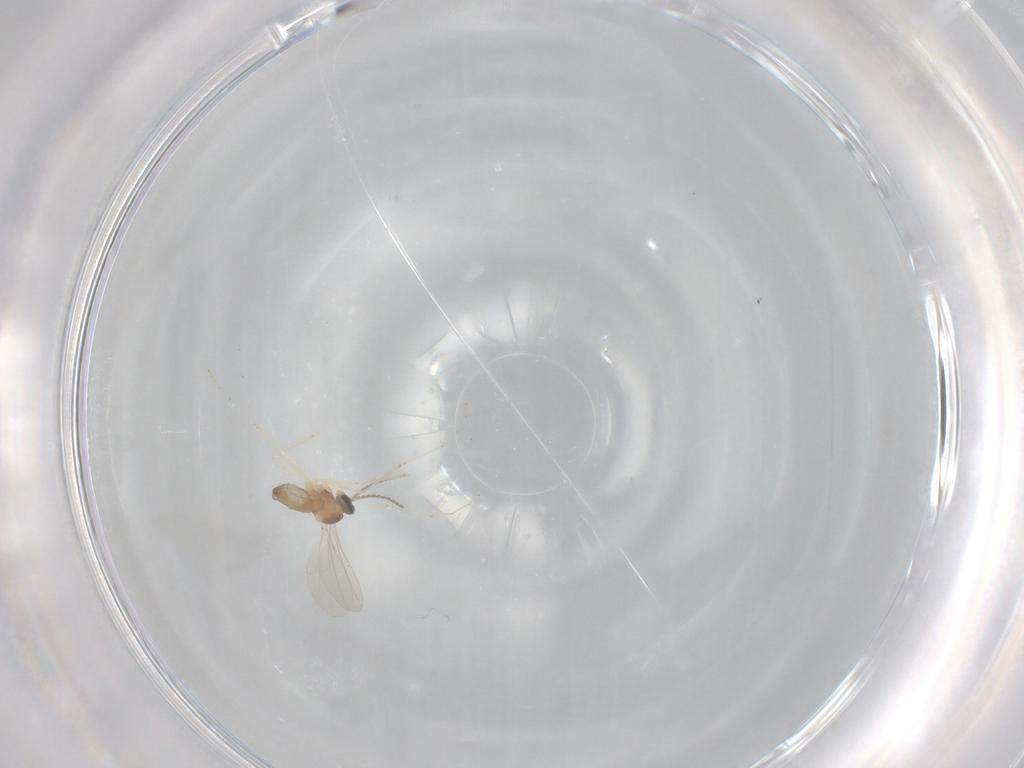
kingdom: Animalia
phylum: Arthropoda
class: Insecta
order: Diptera
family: Cecidomyiidae
